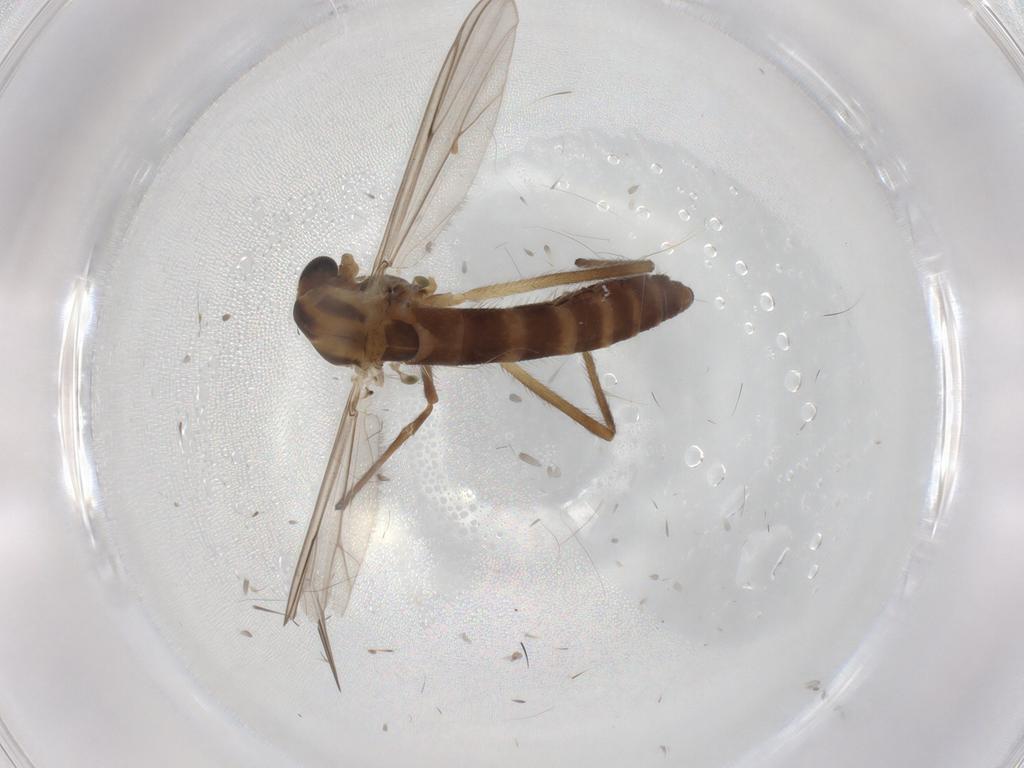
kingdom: Animalia
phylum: Arthropoda
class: Insecta
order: Diptera
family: Chironomidae
